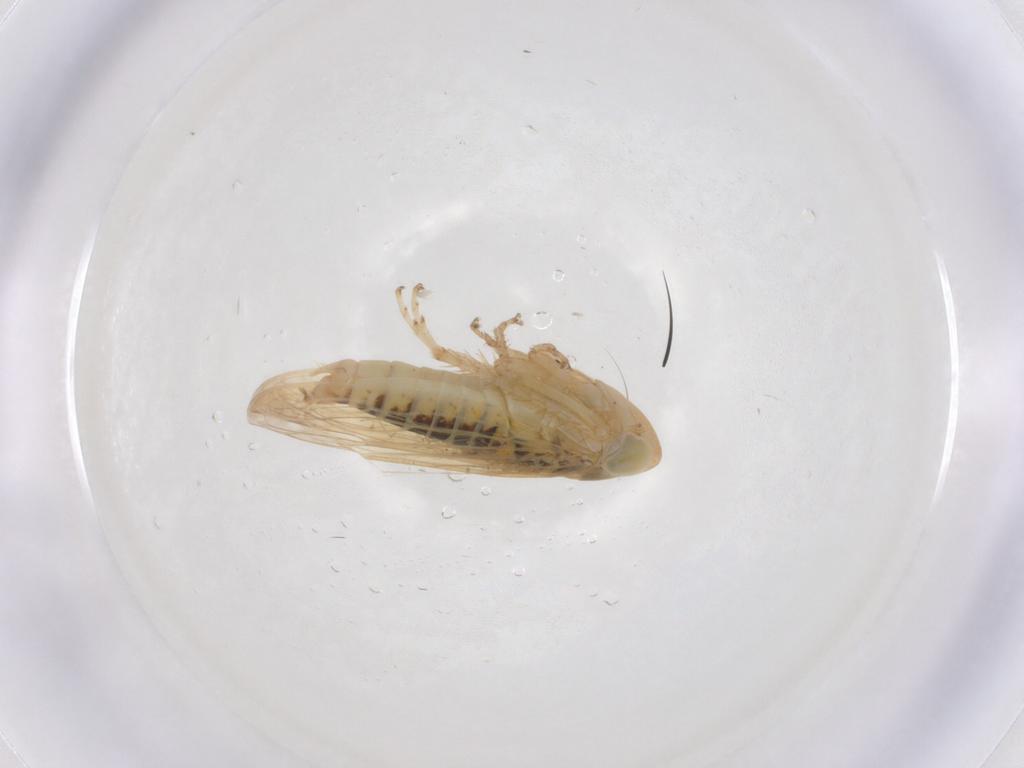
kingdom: Animalia
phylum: Arthropoda
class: Insecta
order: Hemiptera
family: Cicadellidae
